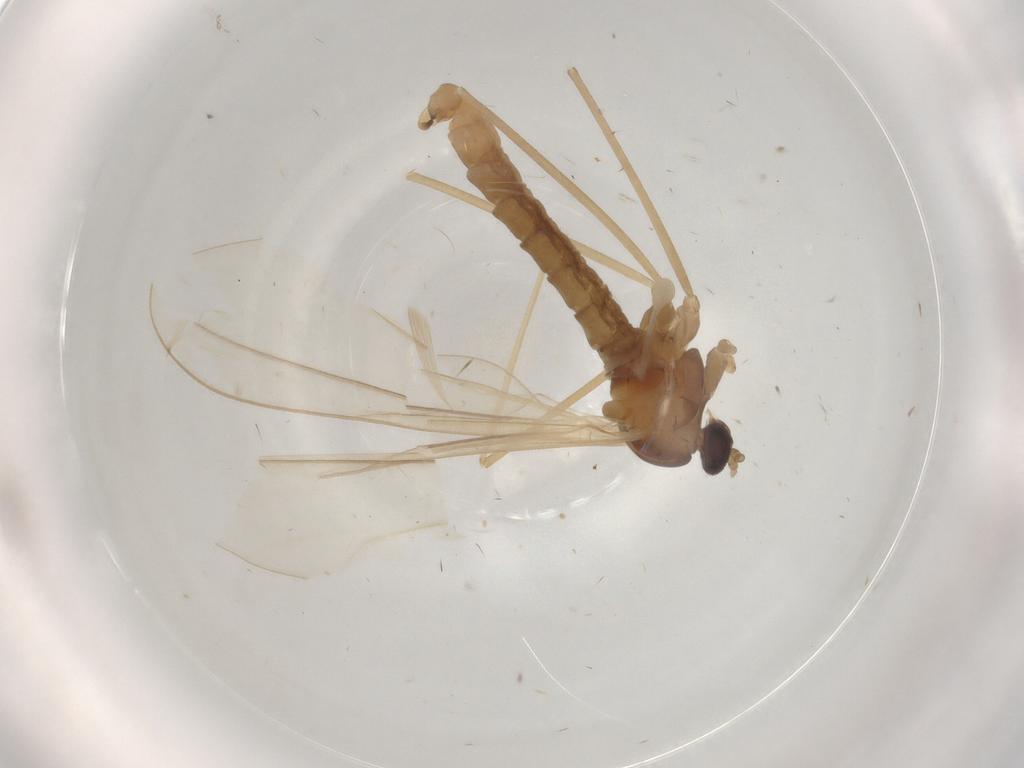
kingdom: Animalia
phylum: Arthropoda
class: Insecta
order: Diptera
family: Cecidomyiidae
